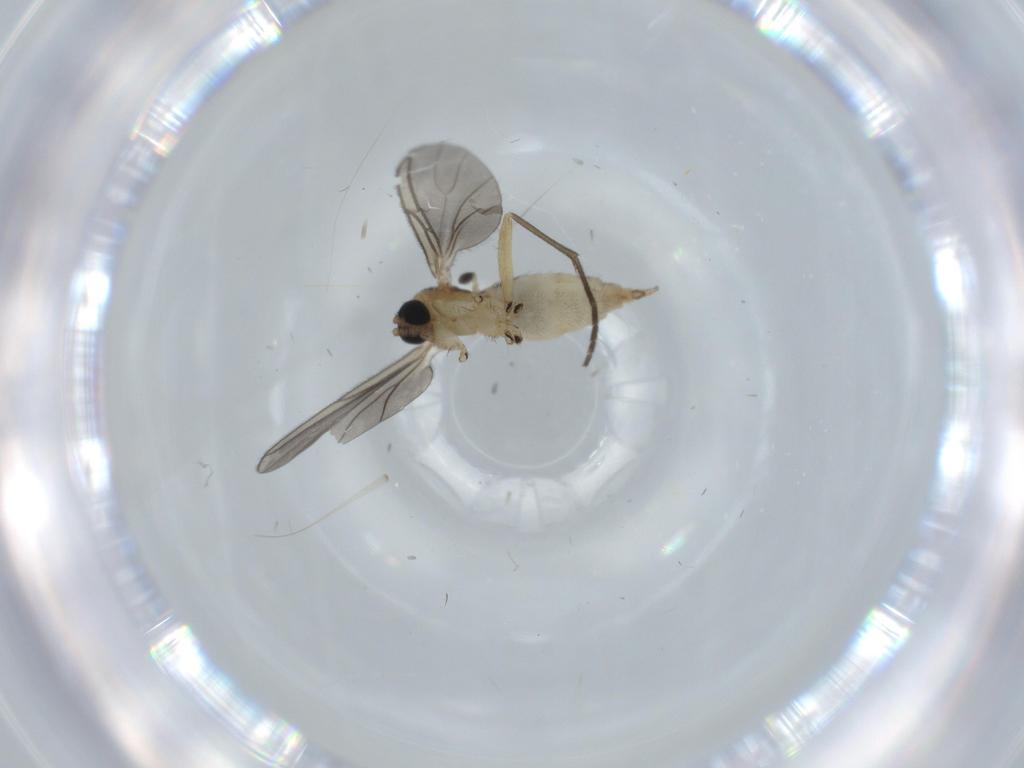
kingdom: Animalia
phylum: Arthropoda
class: Insecta
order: Diptera
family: Sciaridae
